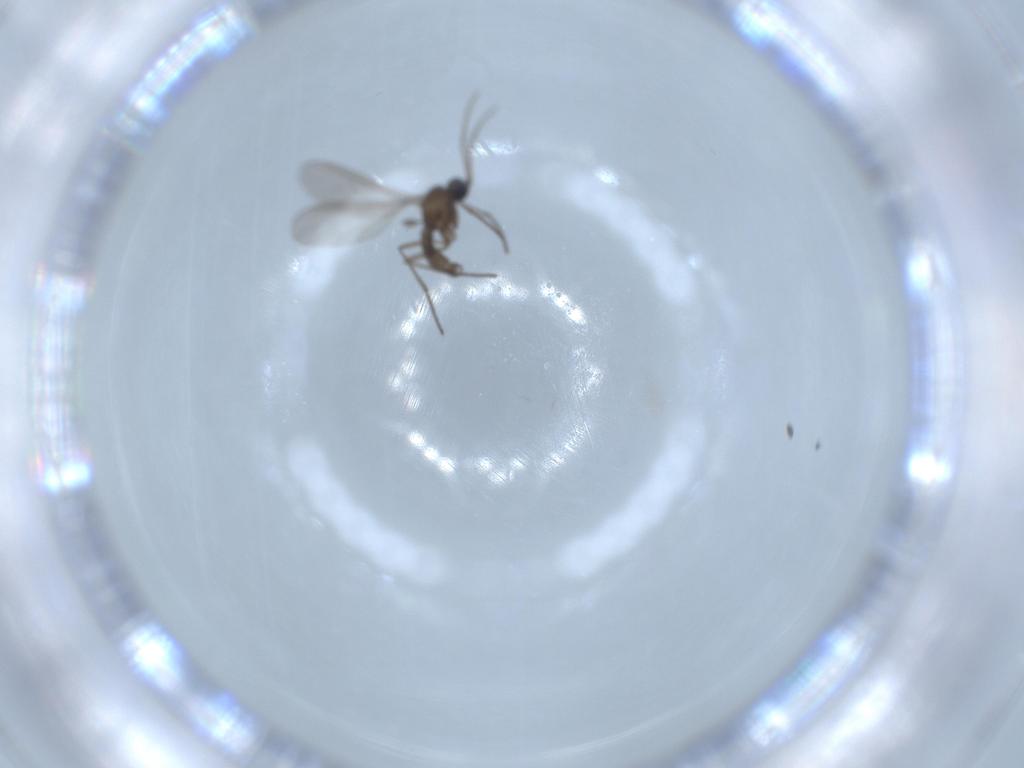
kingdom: Animalia
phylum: Arthropoda
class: Insecta
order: Diptera
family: Sciaridae
